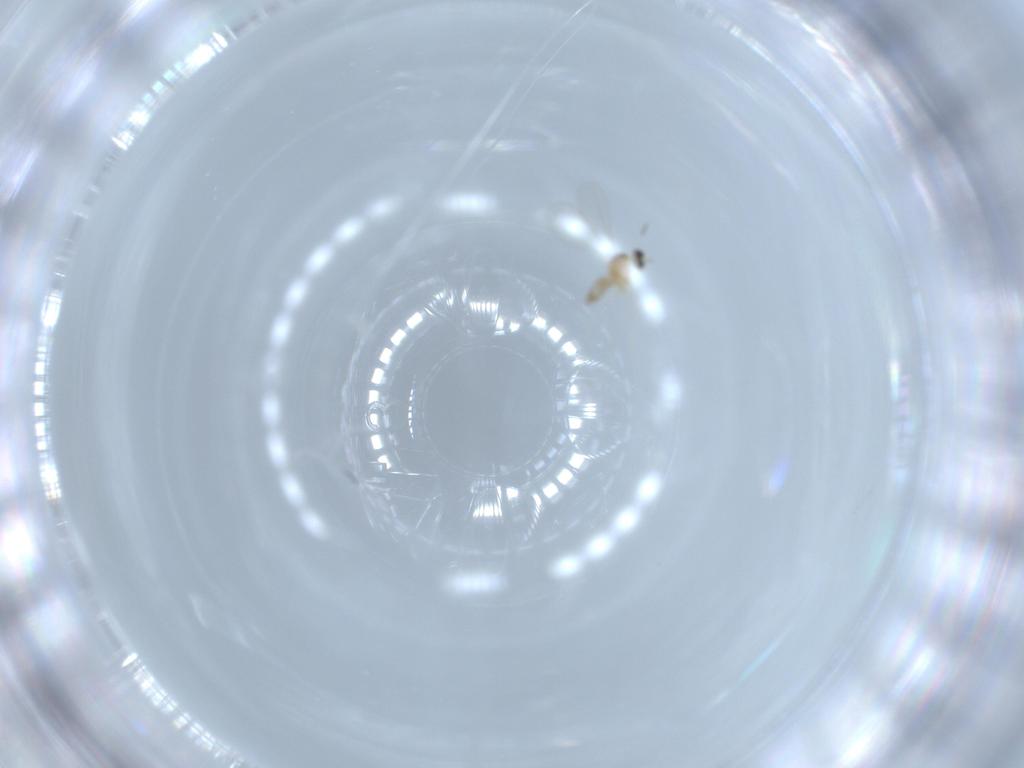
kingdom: Animalia
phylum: Arthropoda
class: Insecta
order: Diptera
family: Cecidomyiidae
